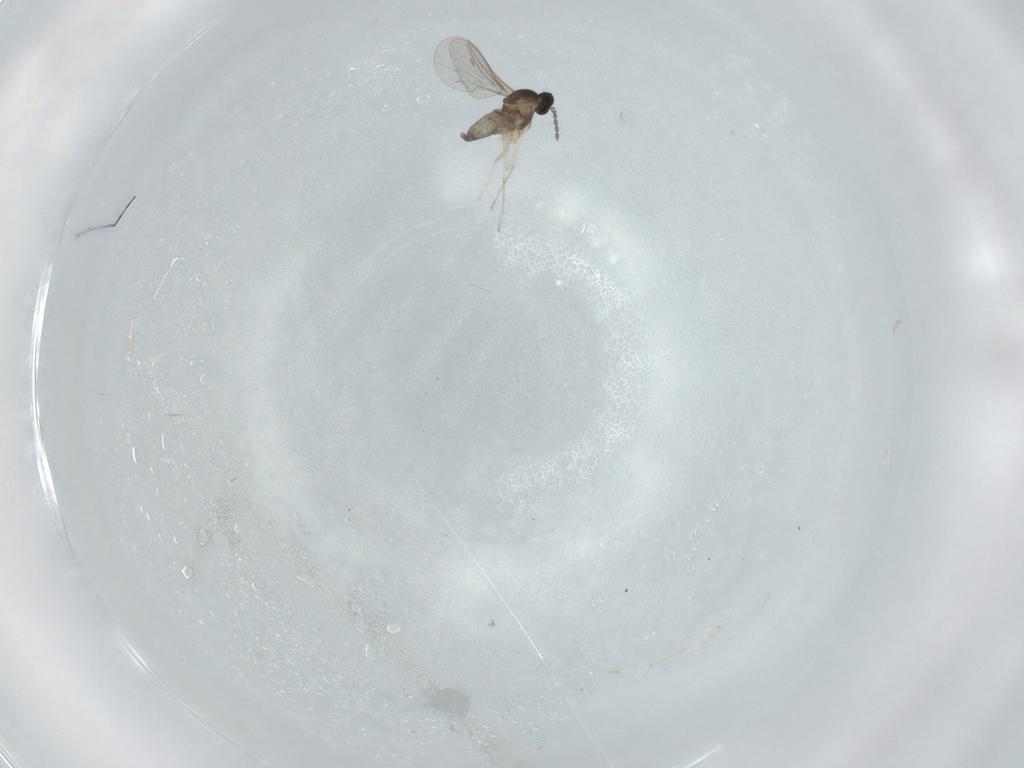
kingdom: Animalia
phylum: Arthropoda
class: Insecta
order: Diptera
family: Cecidomyiidae
